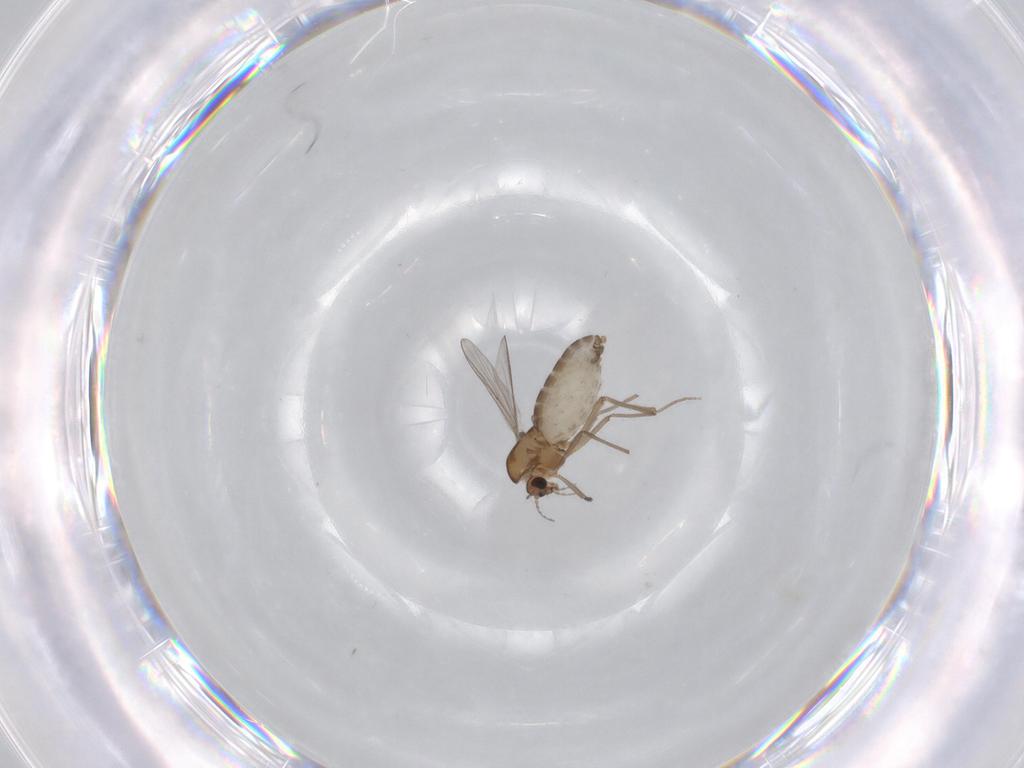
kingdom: Animalia
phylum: Arthropoda
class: Insecta
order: Diptera
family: Chironomidae
